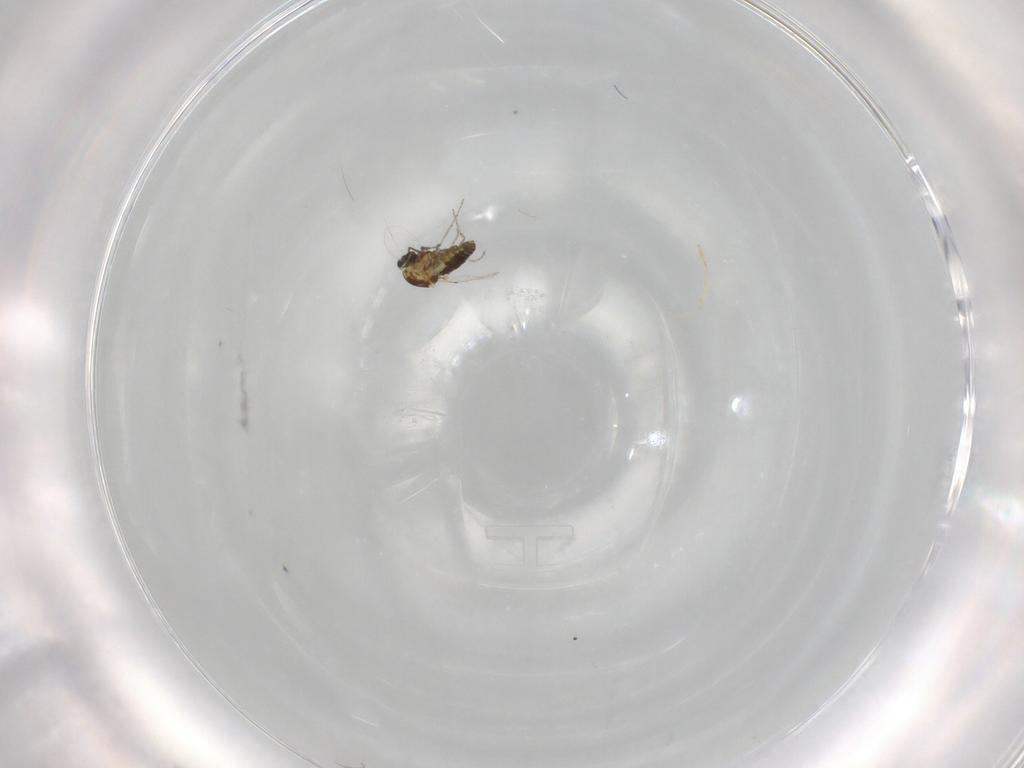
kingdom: Animalia
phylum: Arthropoda
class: Insecta
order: Diptera
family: Ceratopogonidae
